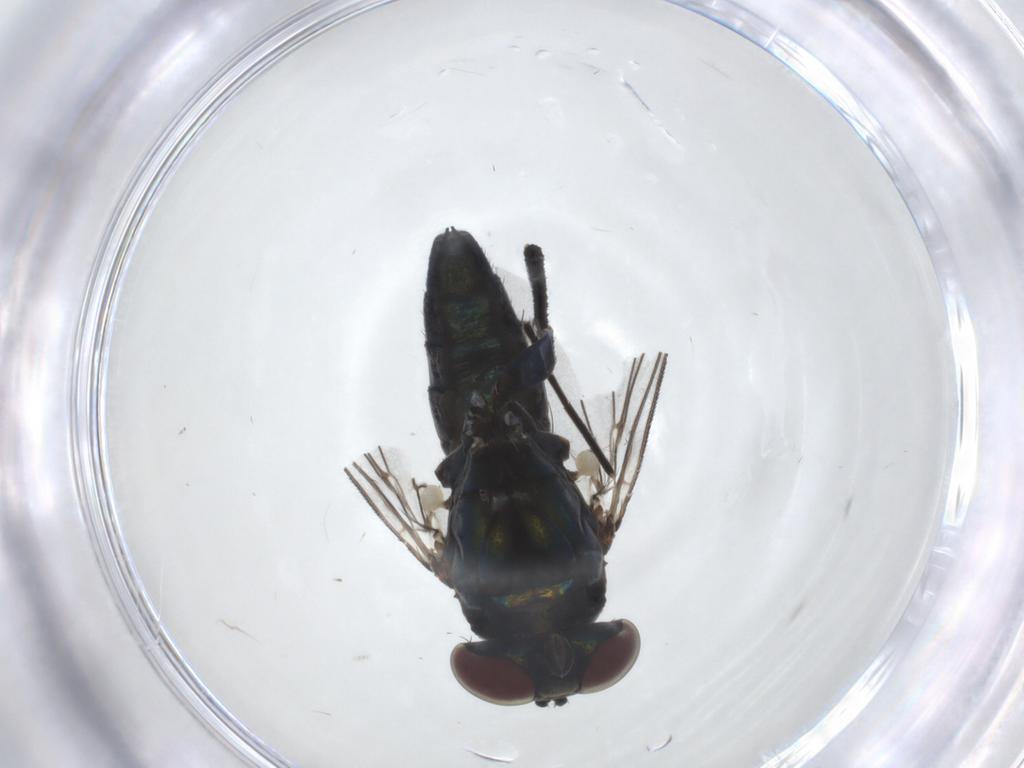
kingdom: Animalia
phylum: Arthropoda
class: Insecta
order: Diptera
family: Dolichopodidae
